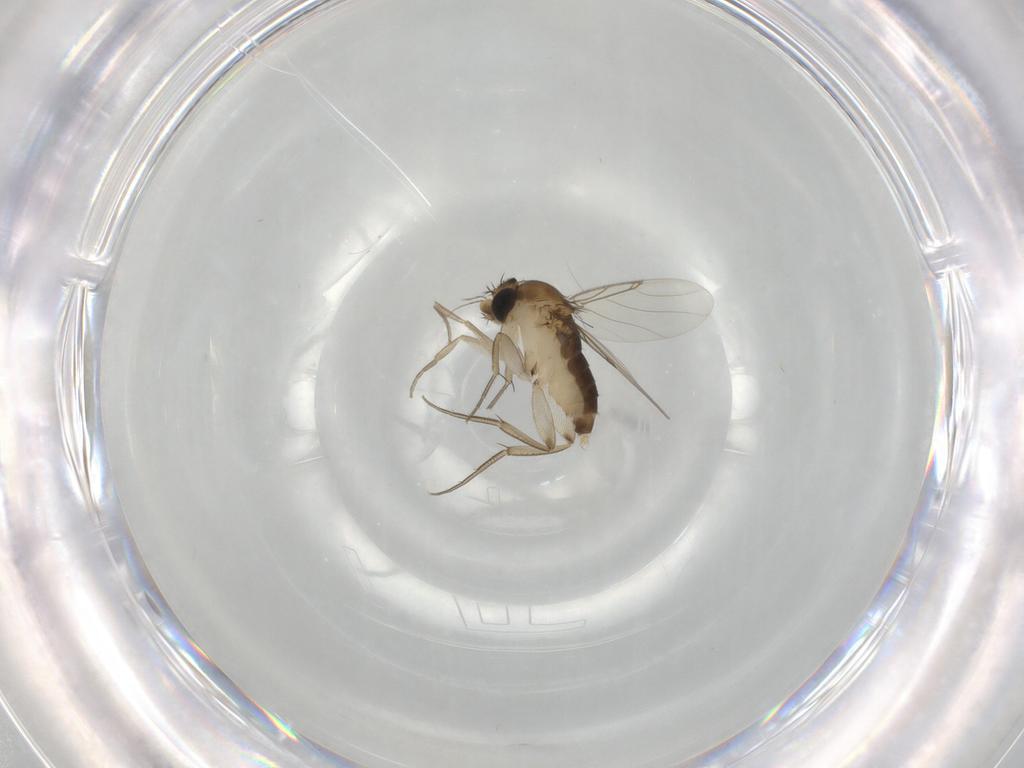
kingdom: Animalia
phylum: Arthropoda
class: Insecta
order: Diptera
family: Phoridae
